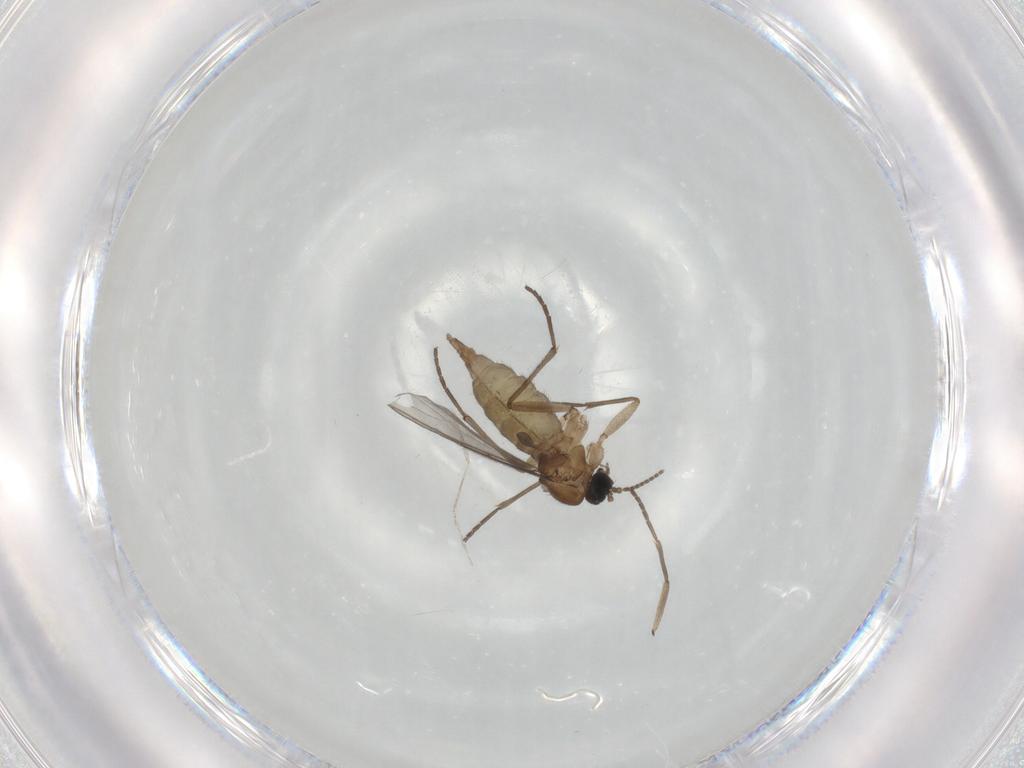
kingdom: Animalia
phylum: Arthropoda
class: Insecta
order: Diptera
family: Sciaridae
